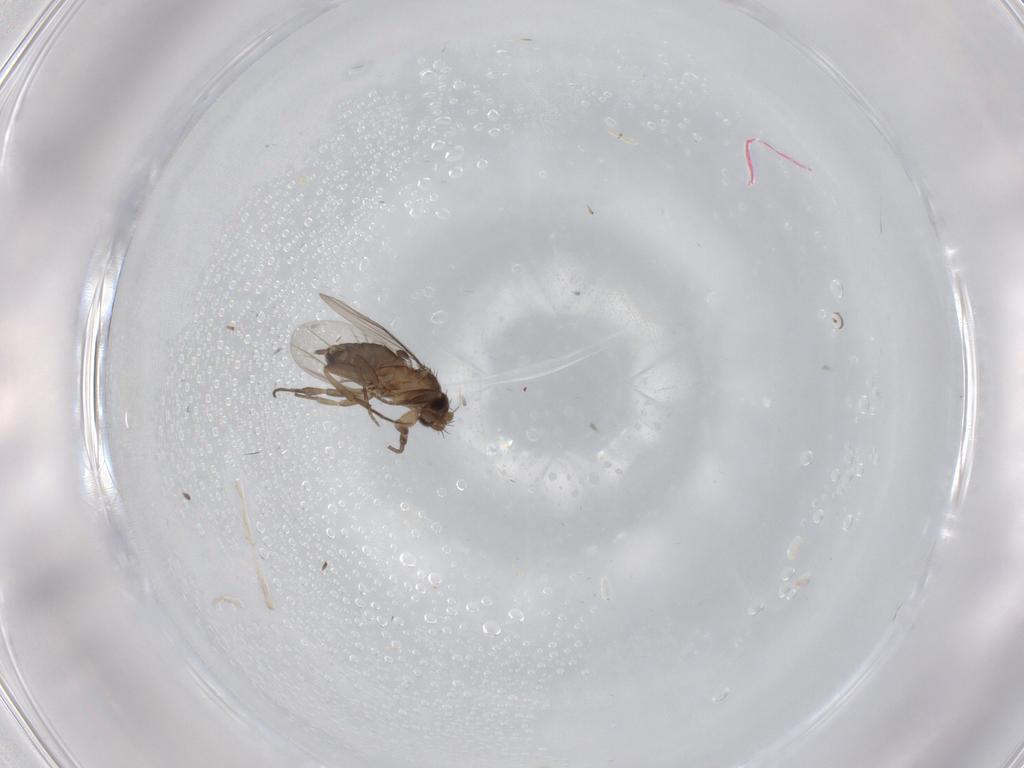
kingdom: Animalia
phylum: Arthropoda
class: Insecta
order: Diptera
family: Phoridae
